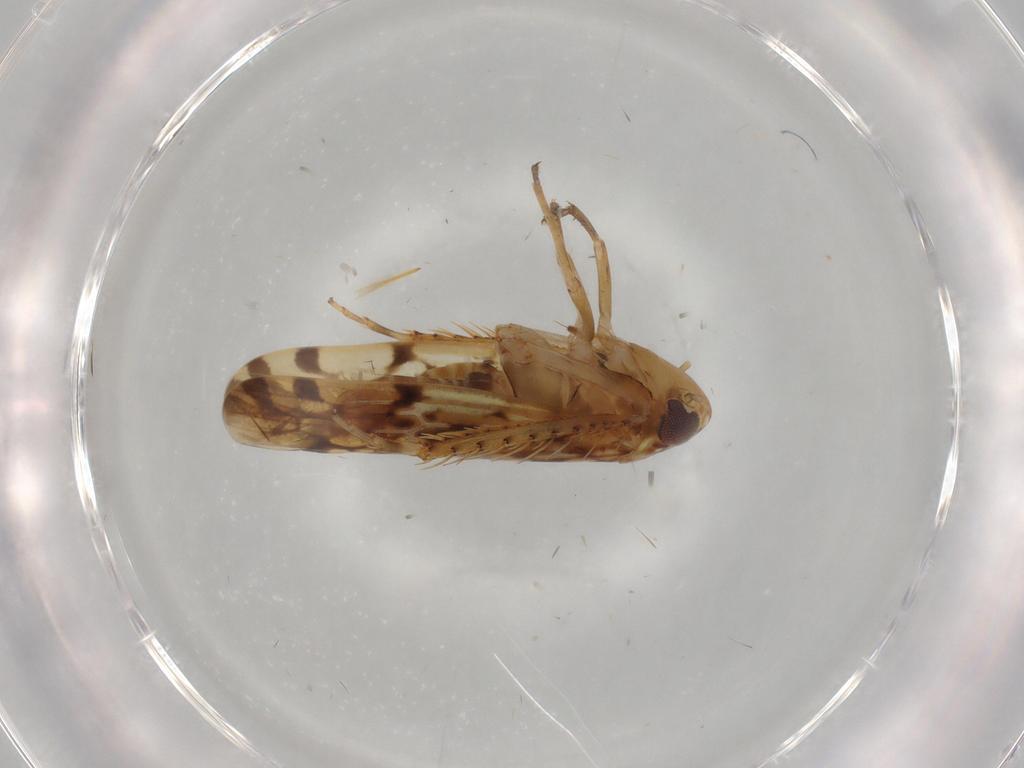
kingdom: Animalia
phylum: Arthropoda
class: Insecta
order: Hemiptera
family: Cicadellidae
